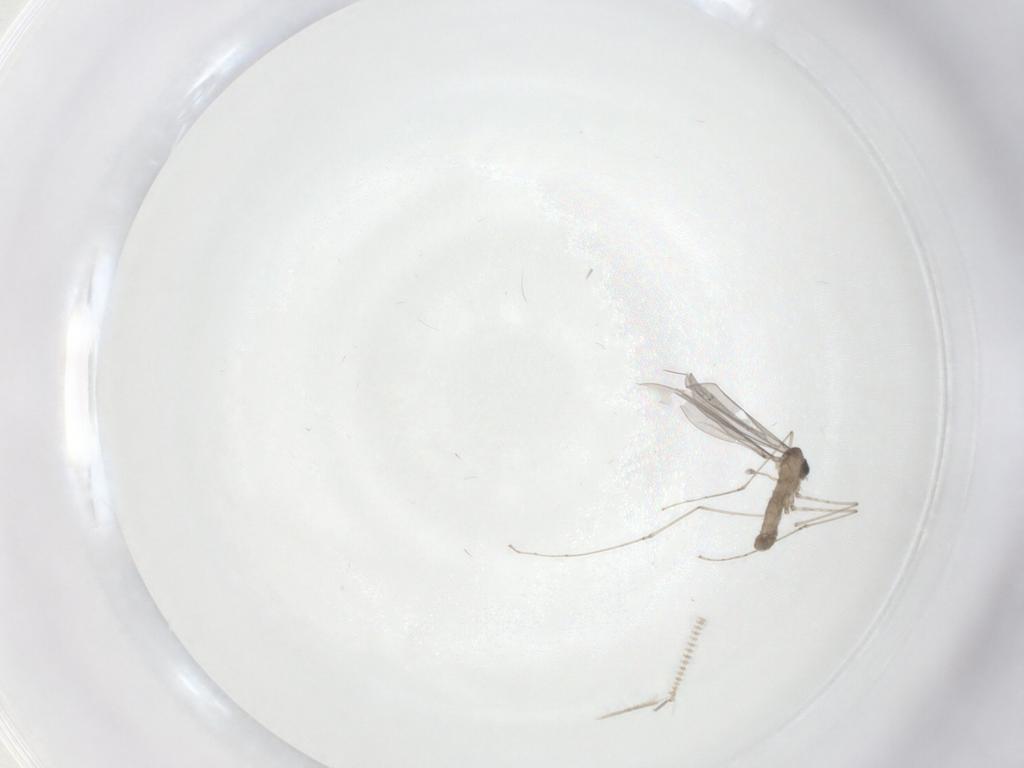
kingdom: Animalia
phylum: Arthropoda
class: Insecta
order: Diptera
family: Cecidomyiidae
